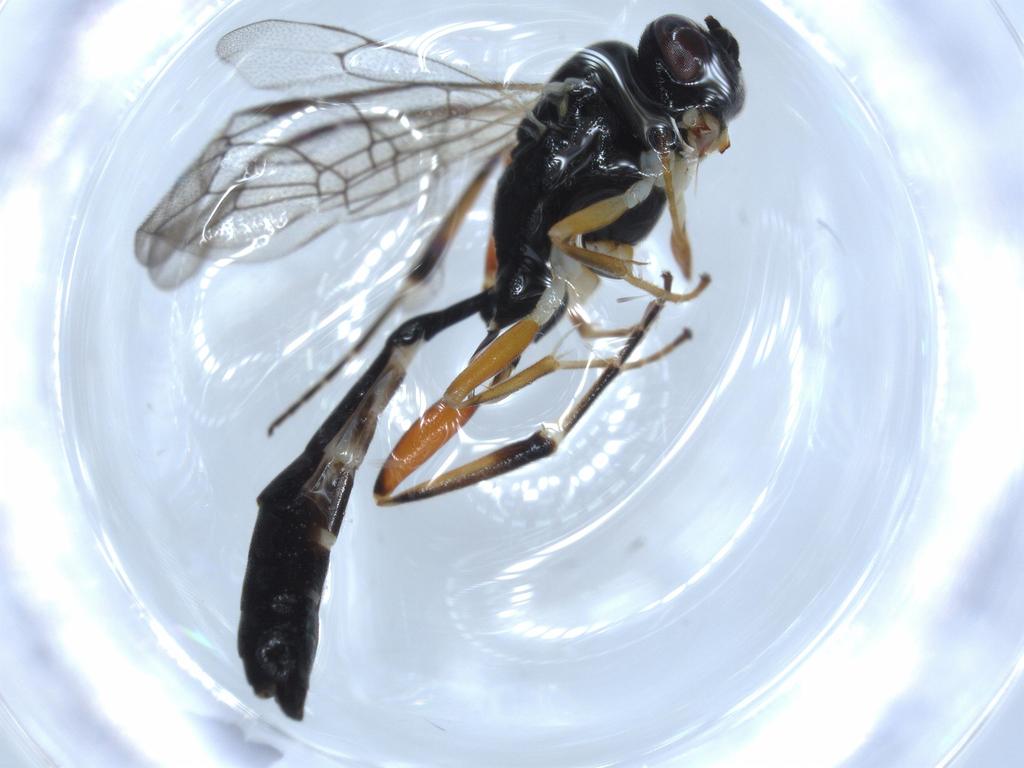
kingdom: Animalia
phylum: Arthropoda
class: Insecta
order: Hymenoptera
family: Ichneumonidae
